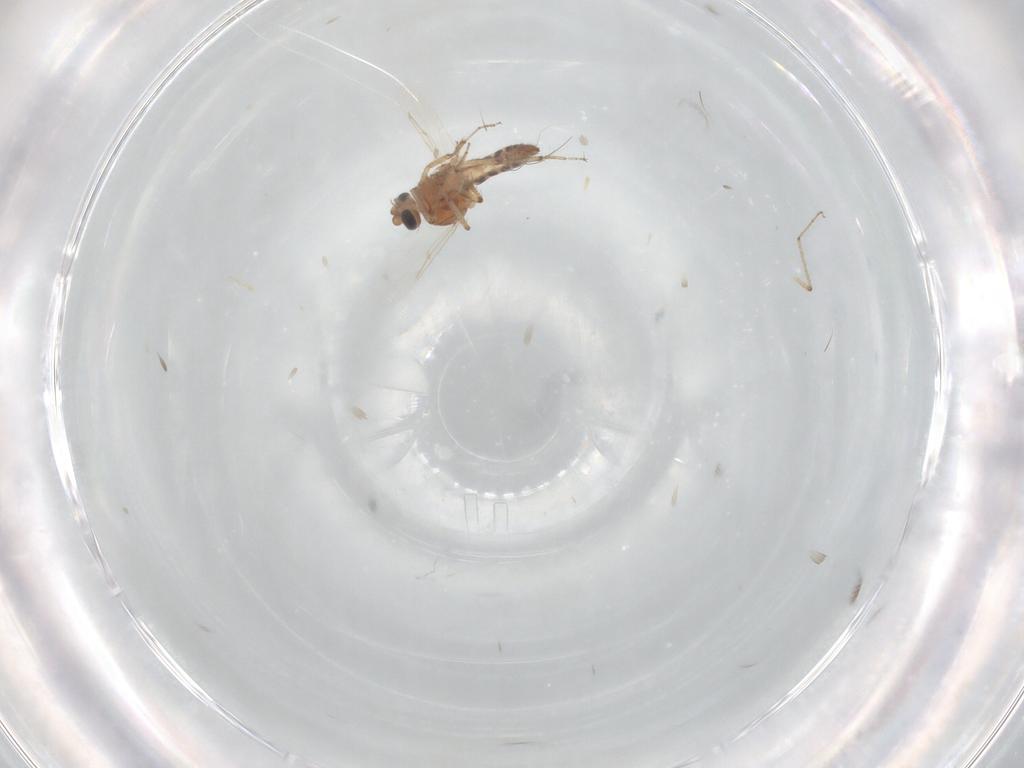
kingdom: Animalia
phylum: Arthropoda
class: Insecta
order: Diptera
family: Ceratopogonidae
